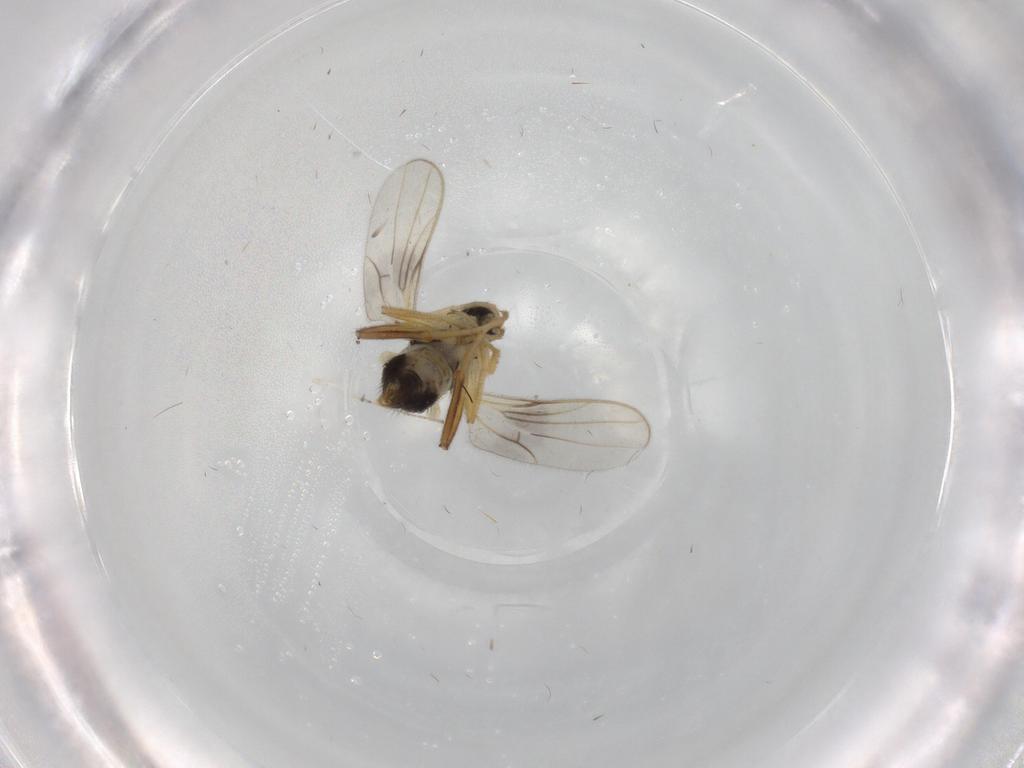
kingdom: Animalia
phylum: Arthropoda
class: Insecta
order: Diptera
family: Hybotidae
